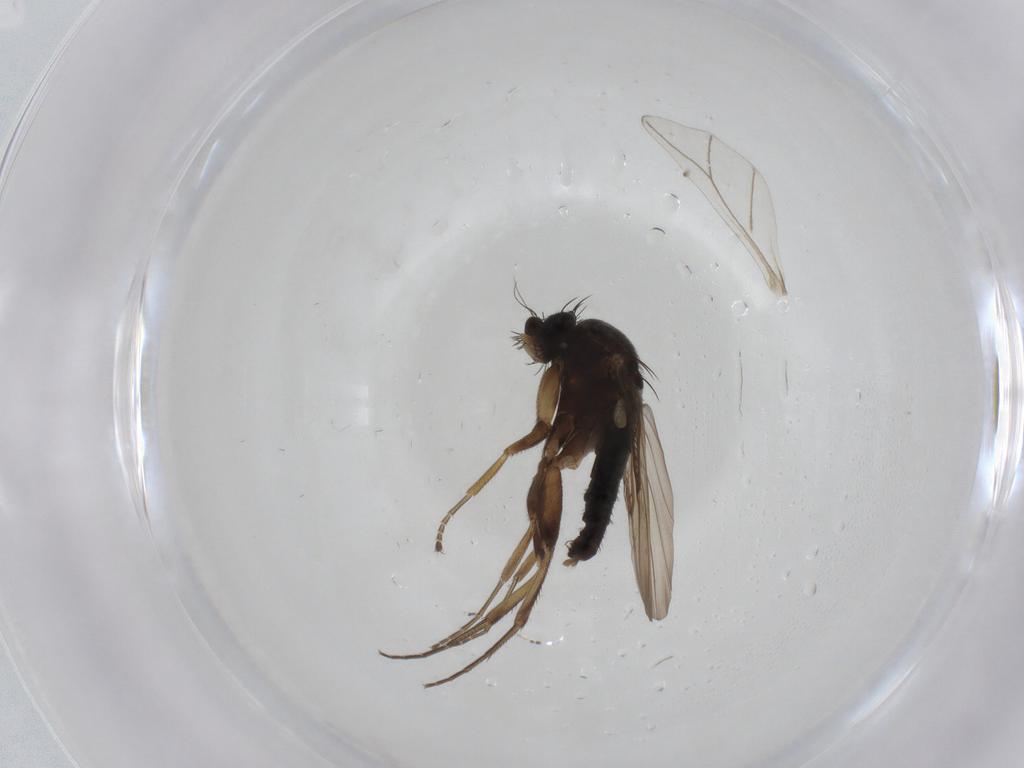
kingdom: Animalia
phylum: Arthropoda
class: Insecta
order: Diptera
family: Phoridae
